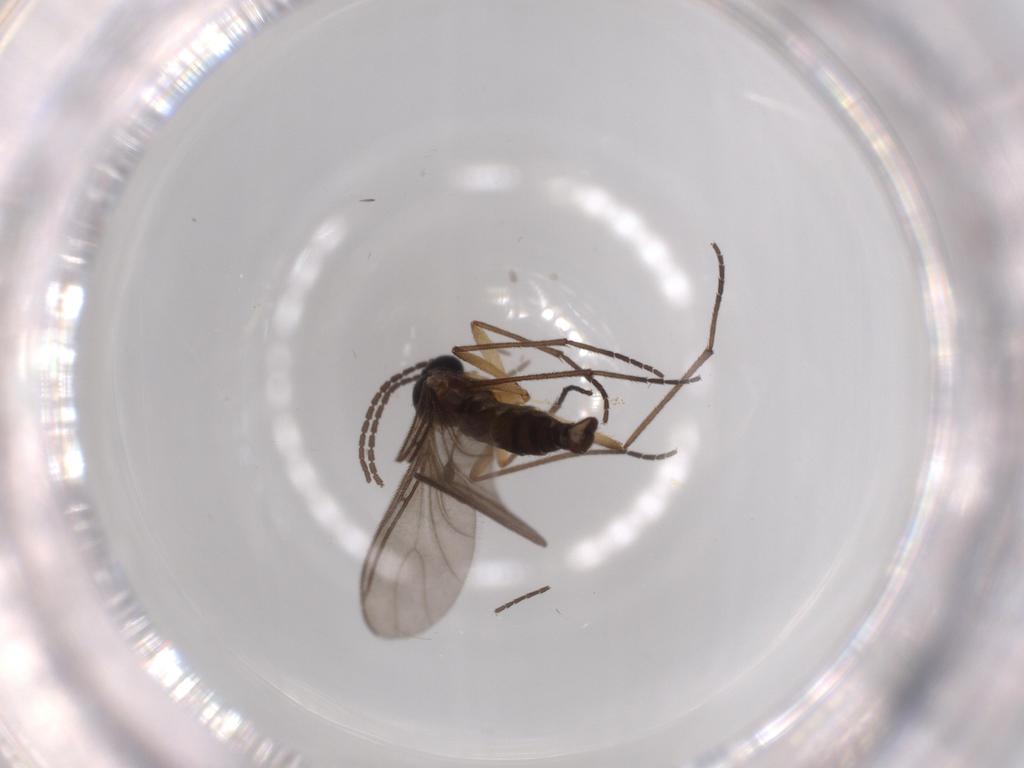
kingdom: Animalia
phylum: Arthropoda
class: Insecta
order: Diptera
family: Sciaridae
